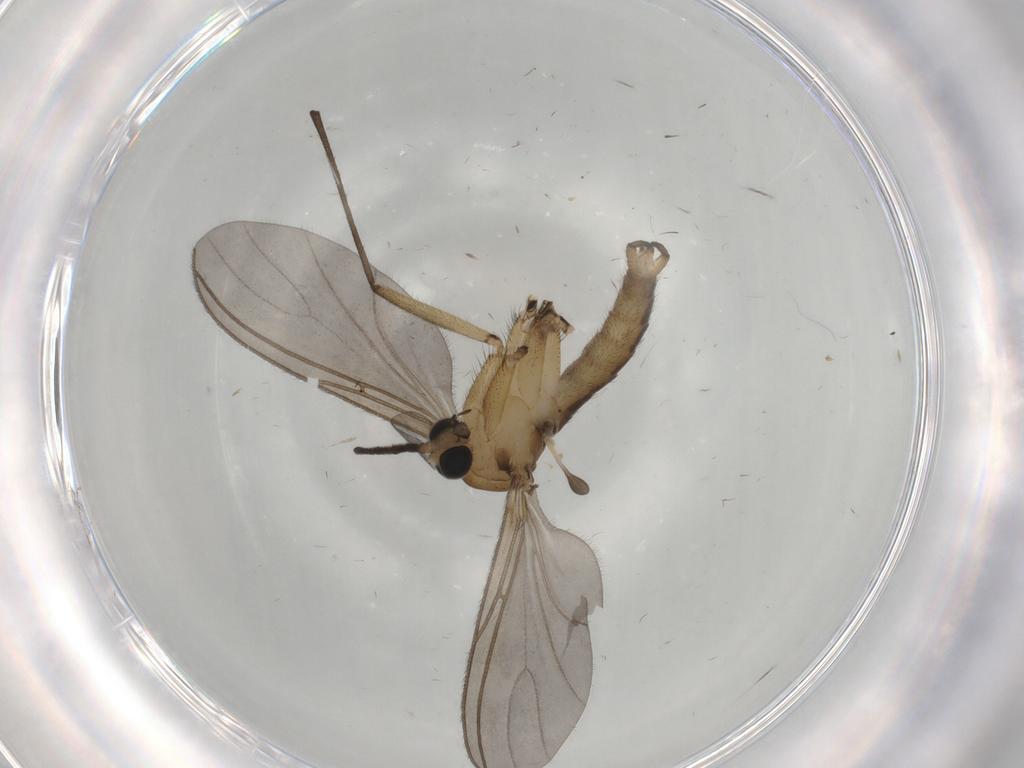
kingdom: Animalia
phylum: Arthropoda
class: Insecta
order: Diptera
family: Sciaridae
